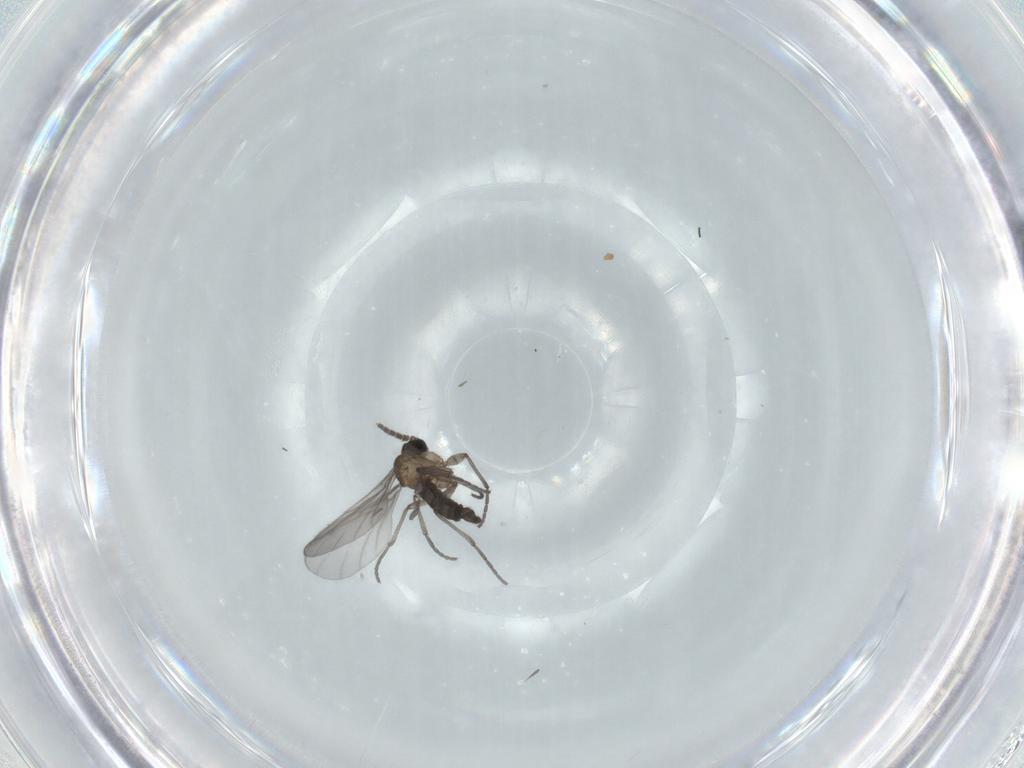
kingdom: Animalia
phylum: Arthropoda
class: Insecta
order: Diptera
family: Sciaridae
